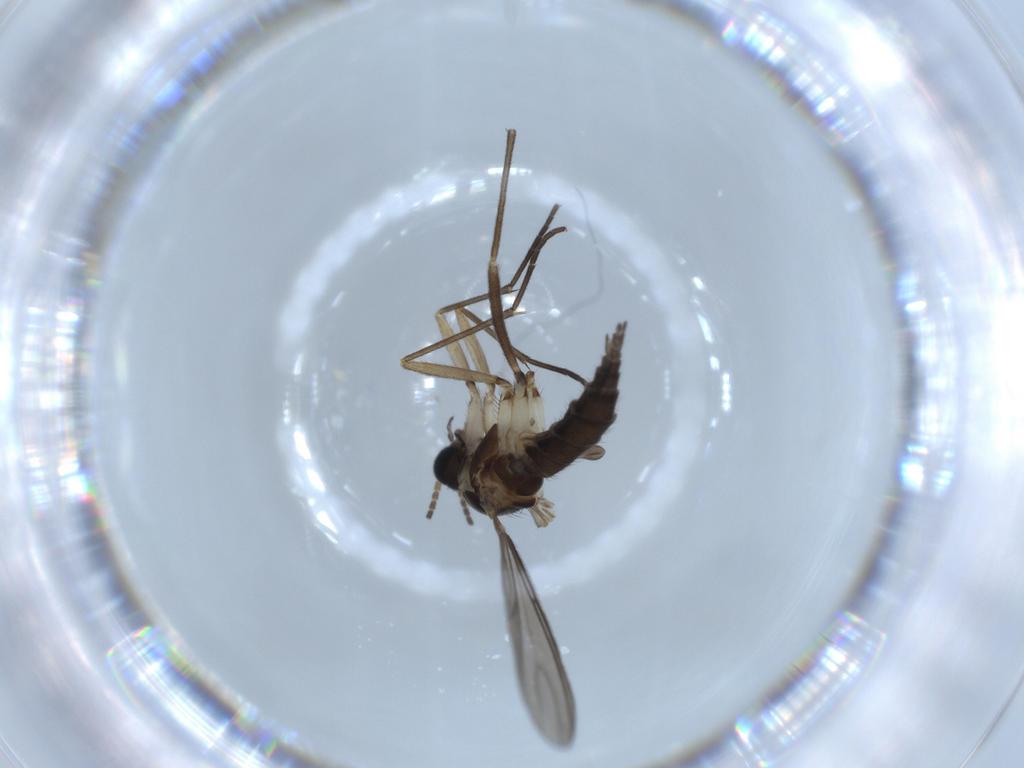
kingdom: Animalia
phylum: Arthropoda
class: Insecta
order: Diptera
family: Sciaridae
